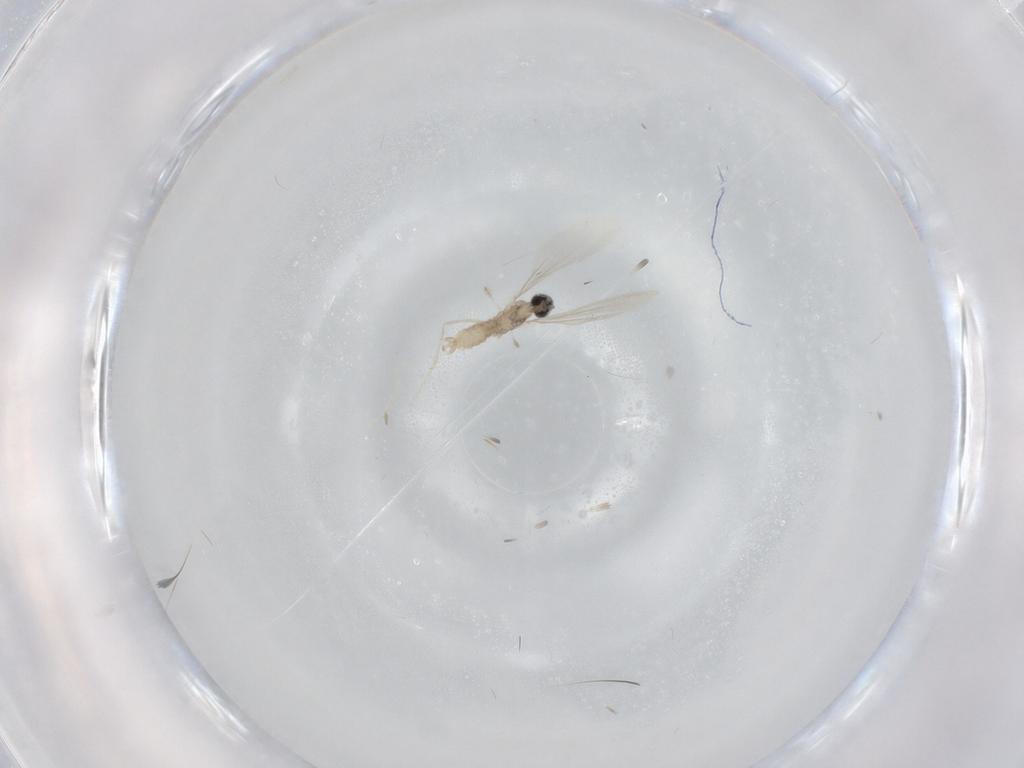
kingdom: Animalia
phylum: Arthropoda
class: Insecta
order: Diptera
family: Cecidomyiidae
